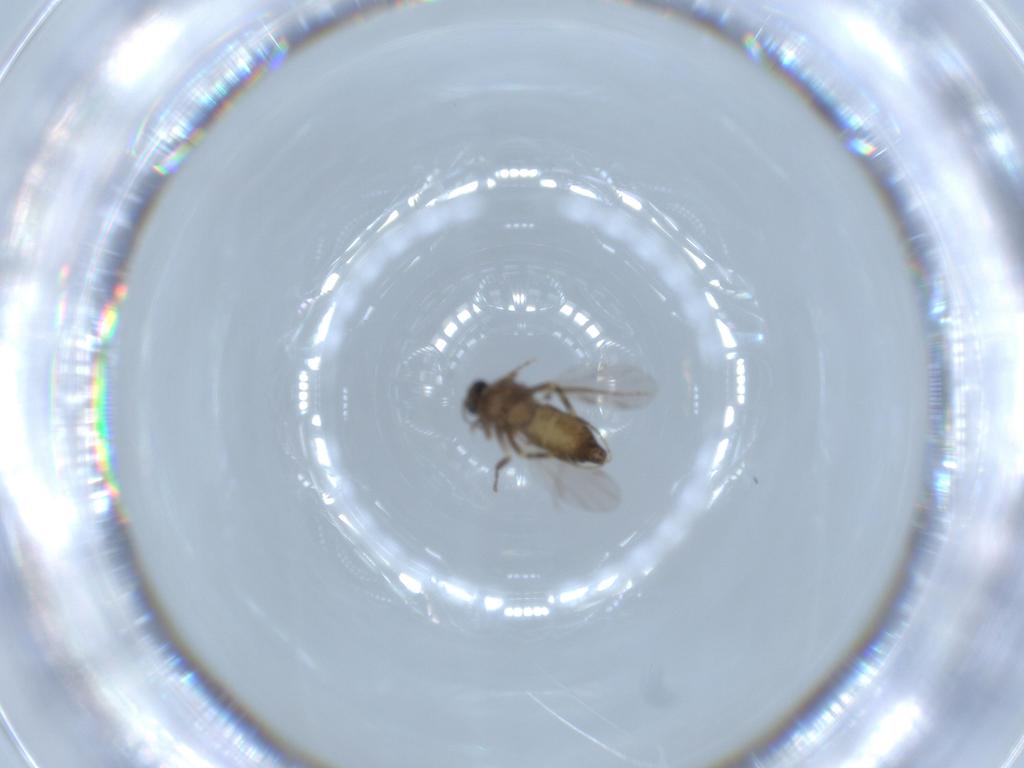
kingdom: Animalia
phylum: Arthropoda
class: Insecta
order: Diptera
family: Ceratopogonidae
